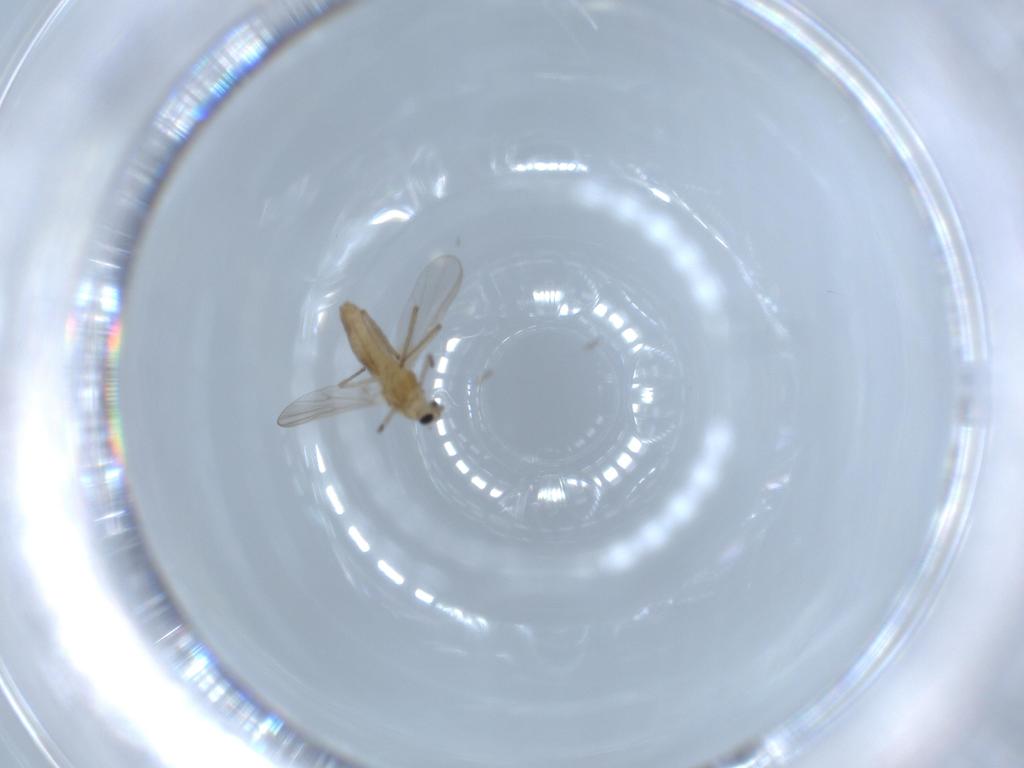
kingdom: Animalia
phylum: Arthropoda
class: Insecta
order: Diptera
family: Chironomidae
